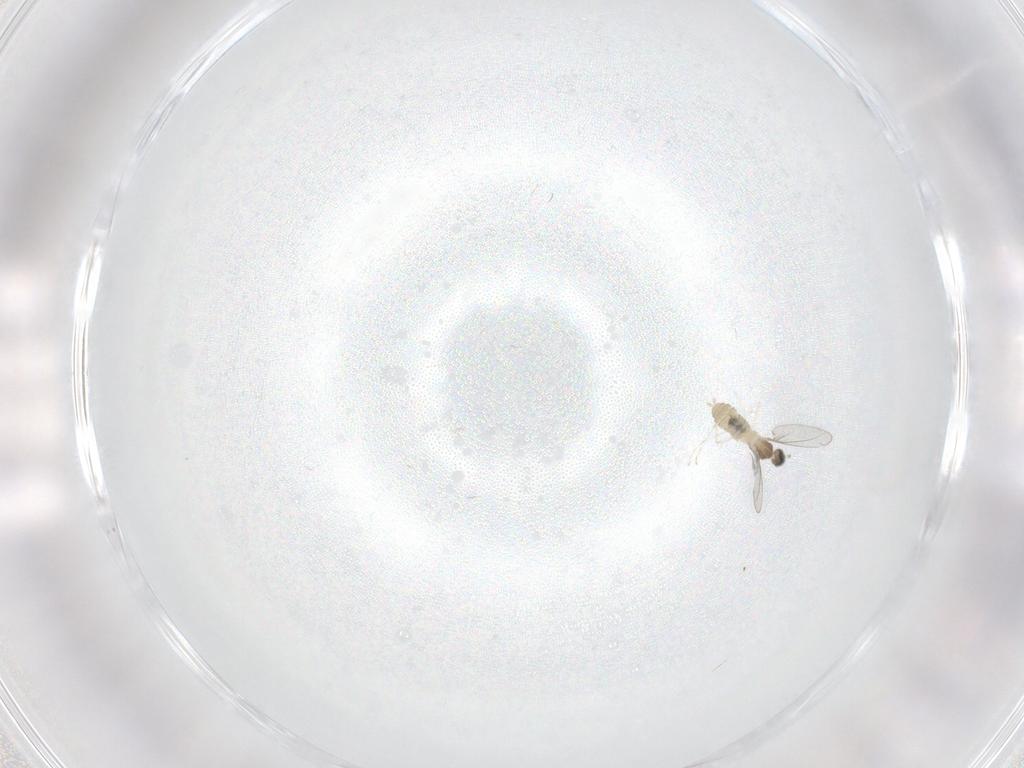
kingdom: Animalia
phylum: Arthropoda
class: Insecta
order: Diptera
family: Cecidomyiidae
